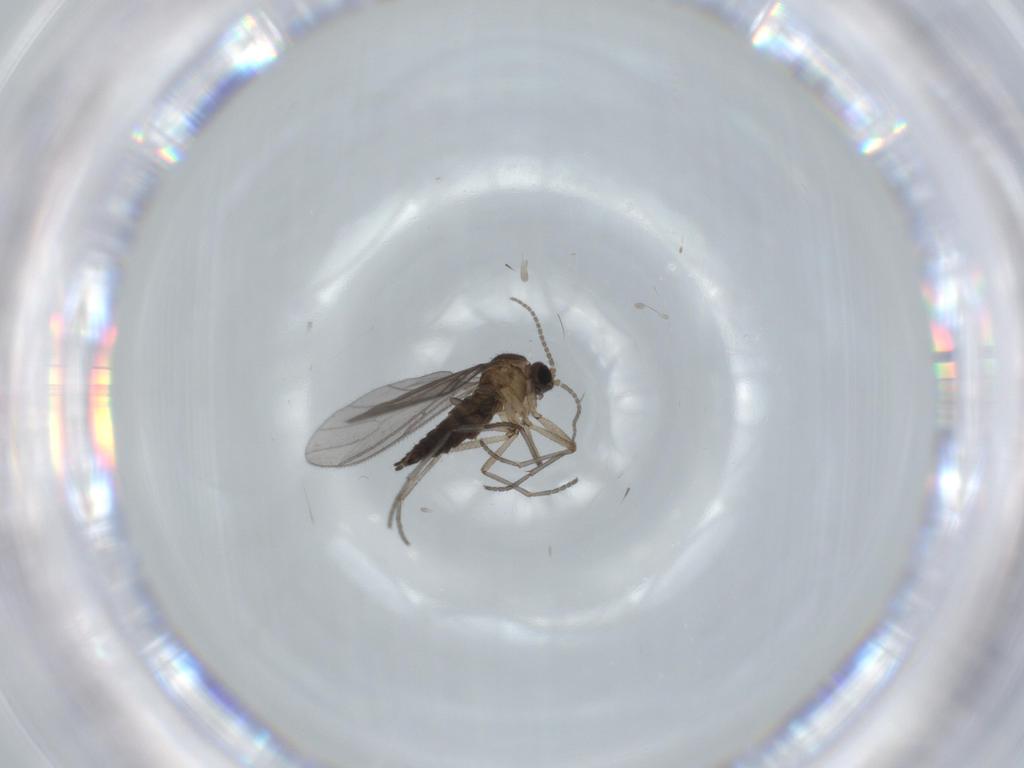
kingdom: Animalia
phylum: Arthropoda
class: Insecta
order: Diptera
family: Sciaridae
